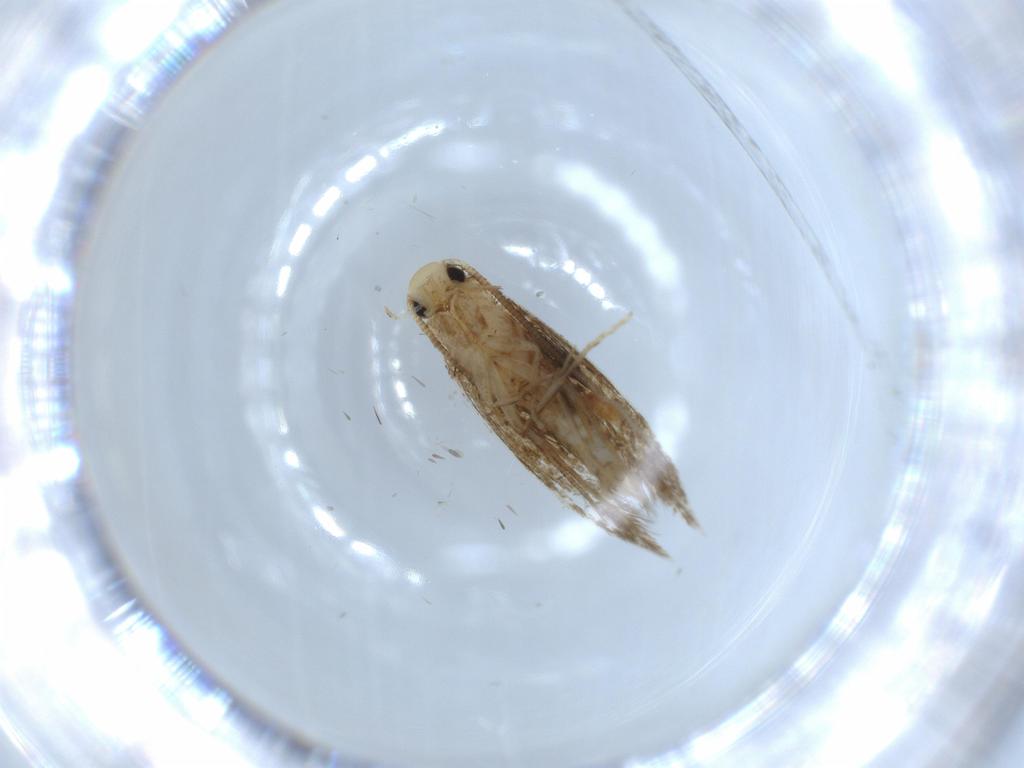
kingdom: Animalia
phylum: Arthropoda
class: Insecta
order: Lepidoptera
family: Tineidae
